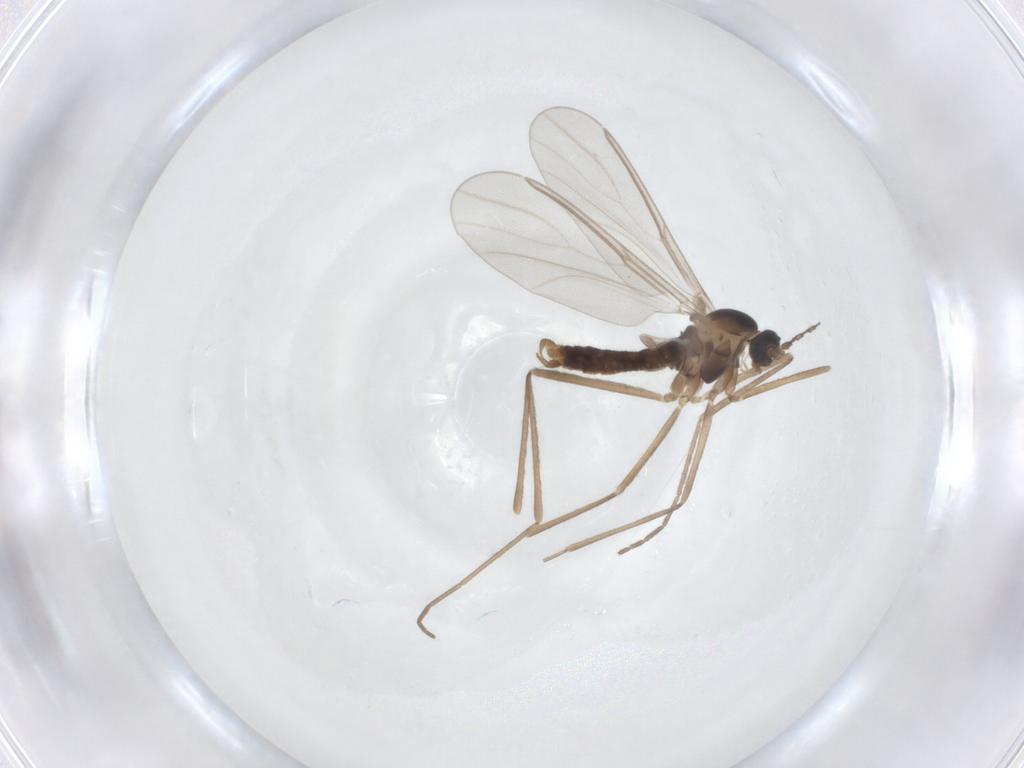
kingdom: Animalia
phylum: Arthropoda
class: Insecta
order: Diptera
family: Cecidomyiidae
